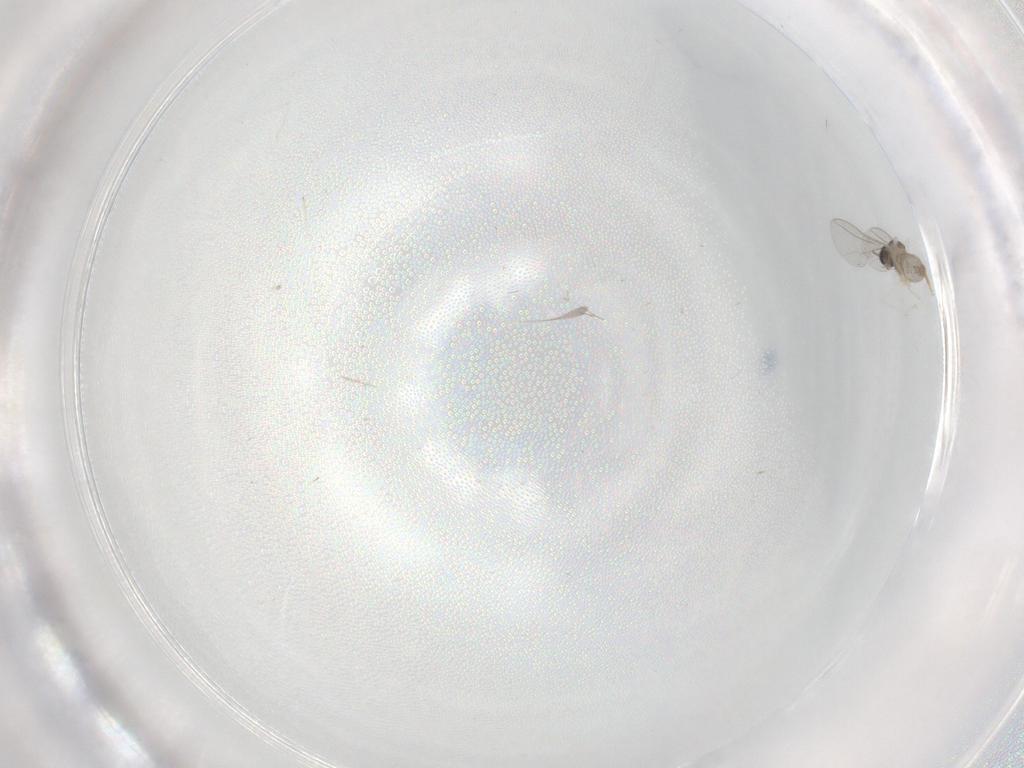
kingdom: Animalia
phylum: Arthropoda
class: Insecta
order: Diptera
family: Cecidomyiidae
